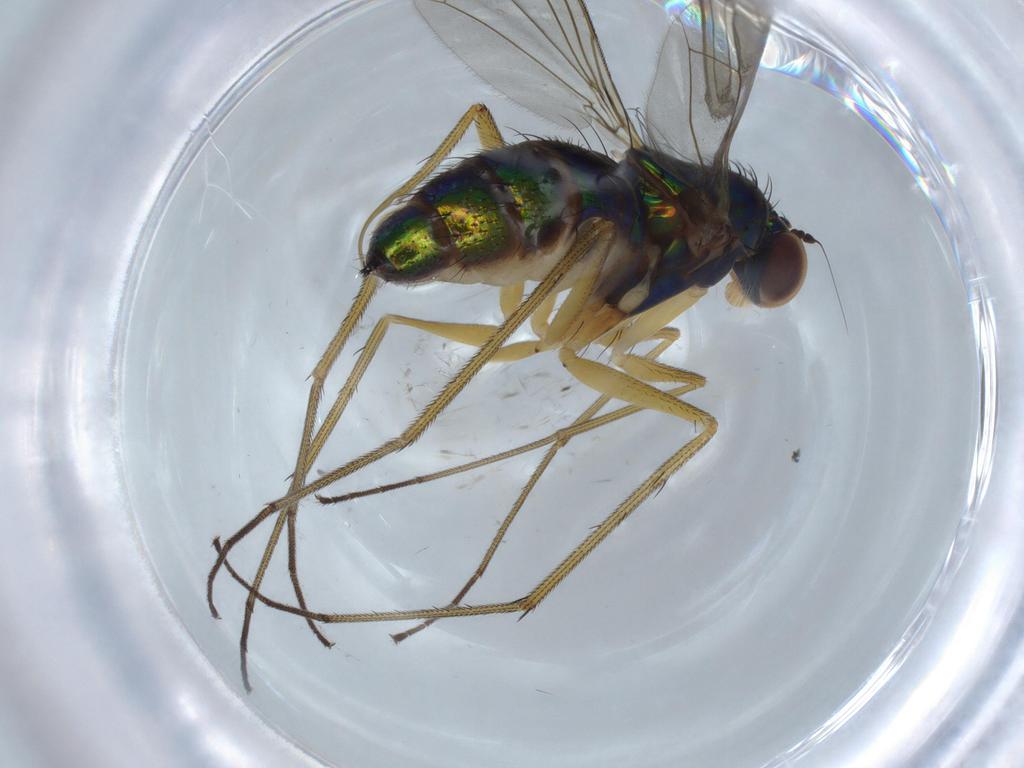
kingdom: Animalia
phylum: Arthropoda
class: Insecta
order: Diptera
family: Dolichopodidae
